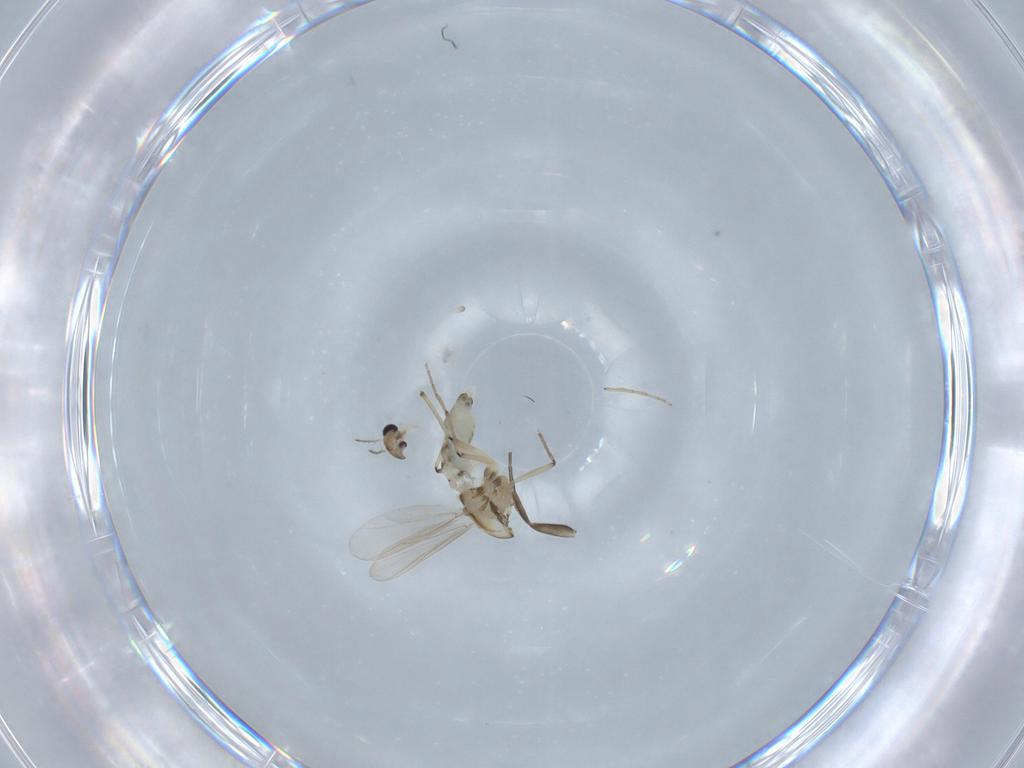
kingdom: Animalia
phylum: Arthropoda
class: Insecta
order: Diptera
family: Chironomidae
